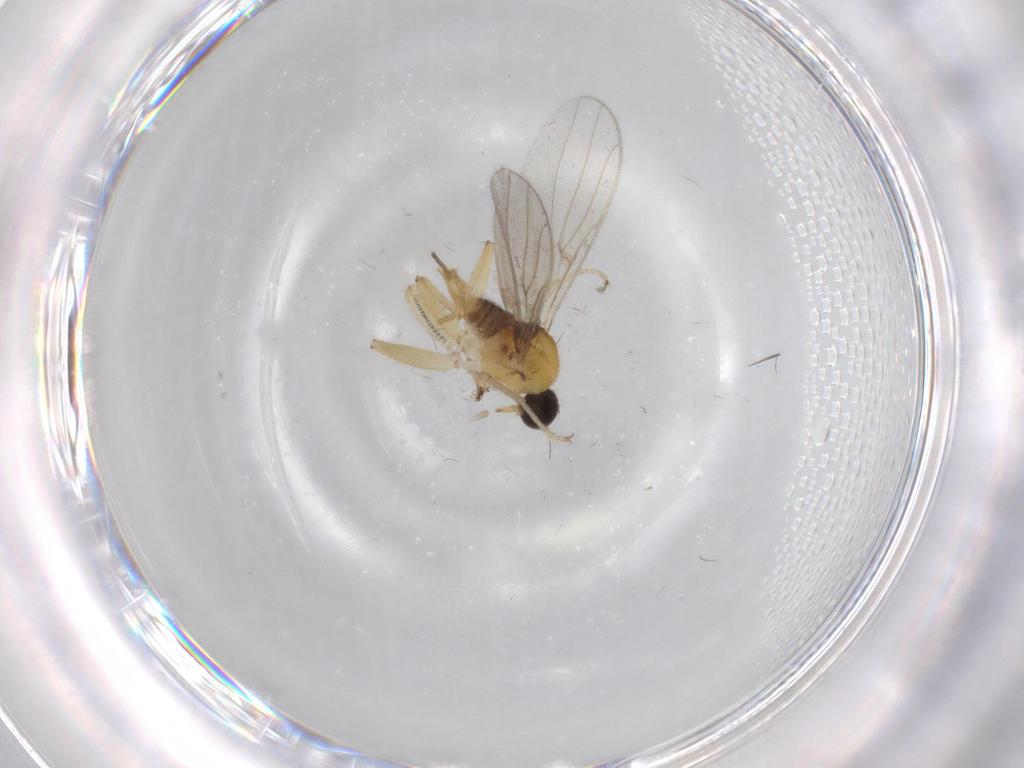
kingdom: Animalia
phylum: Arthropoda
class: Insecta
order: Diptera
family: Hybotidae
